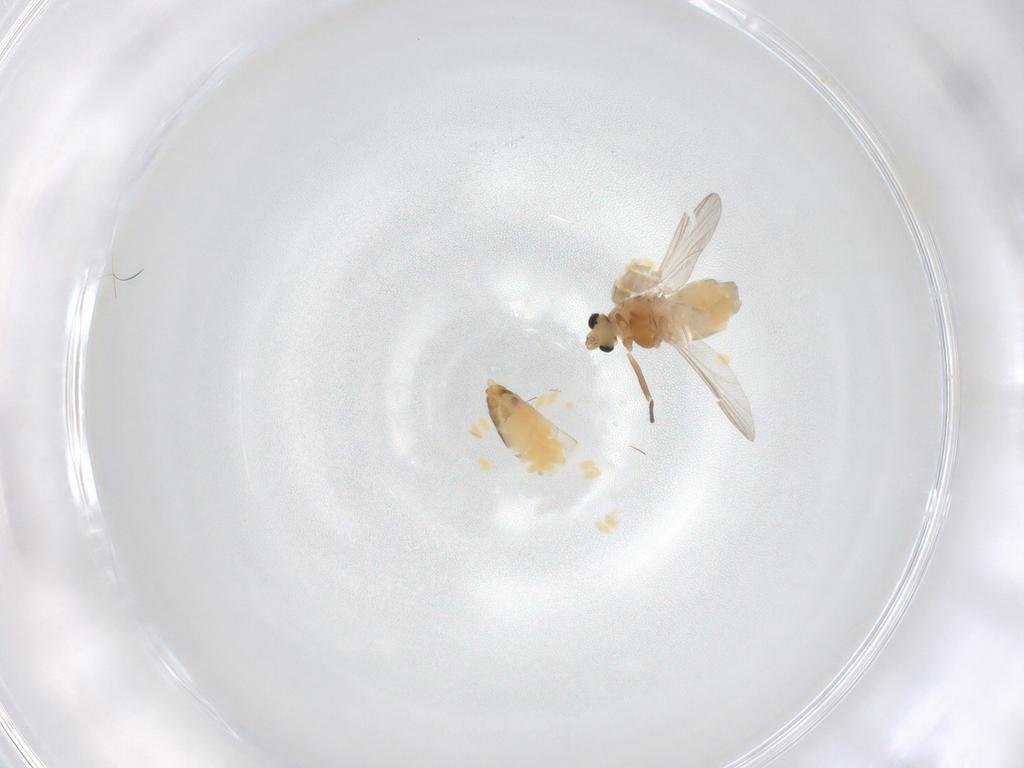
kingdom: Animalia
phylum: Arthropoda
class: Insecta
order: Diptera
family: Chironomidae
